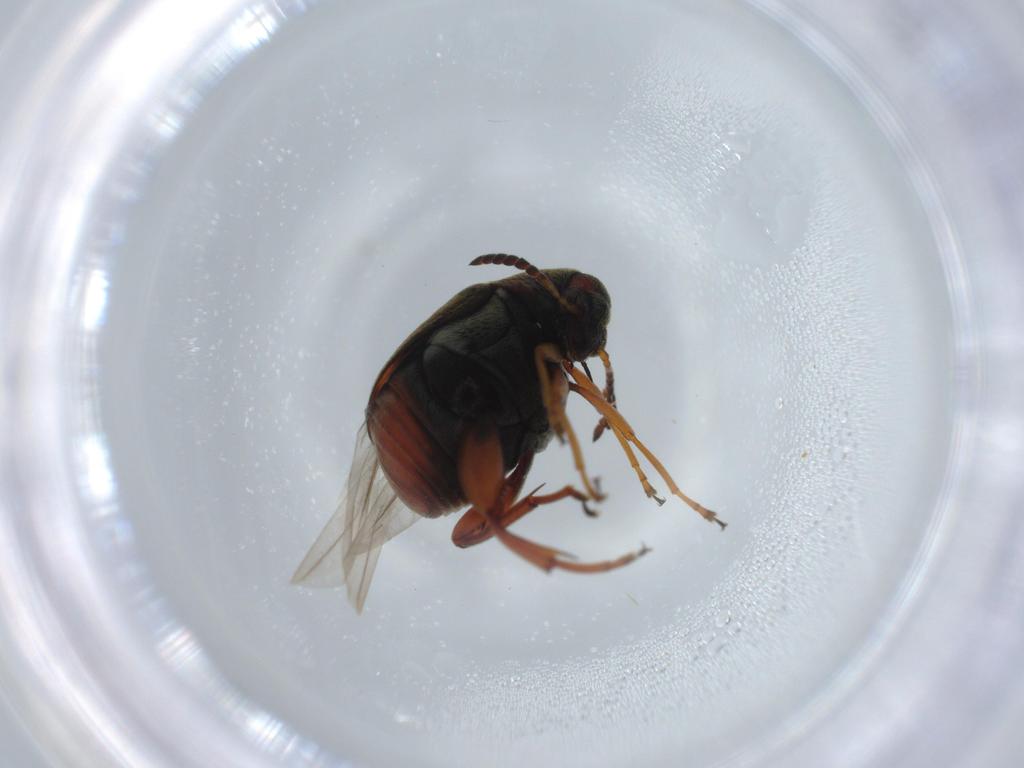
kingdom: Animalia
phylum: Arthropoda
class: Insecta
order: Coleoptera
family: Chrysomelidae
